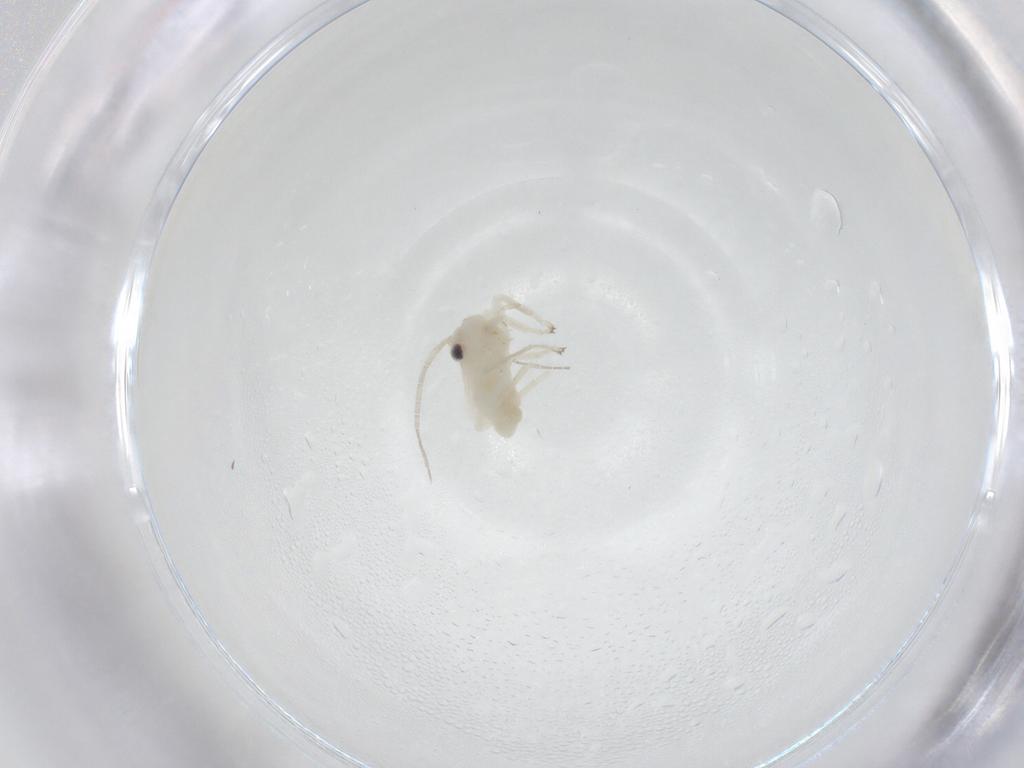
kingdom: Animalia
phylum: Arthropoda
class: Insecta
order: Psocodea
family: Caeciliusidae
